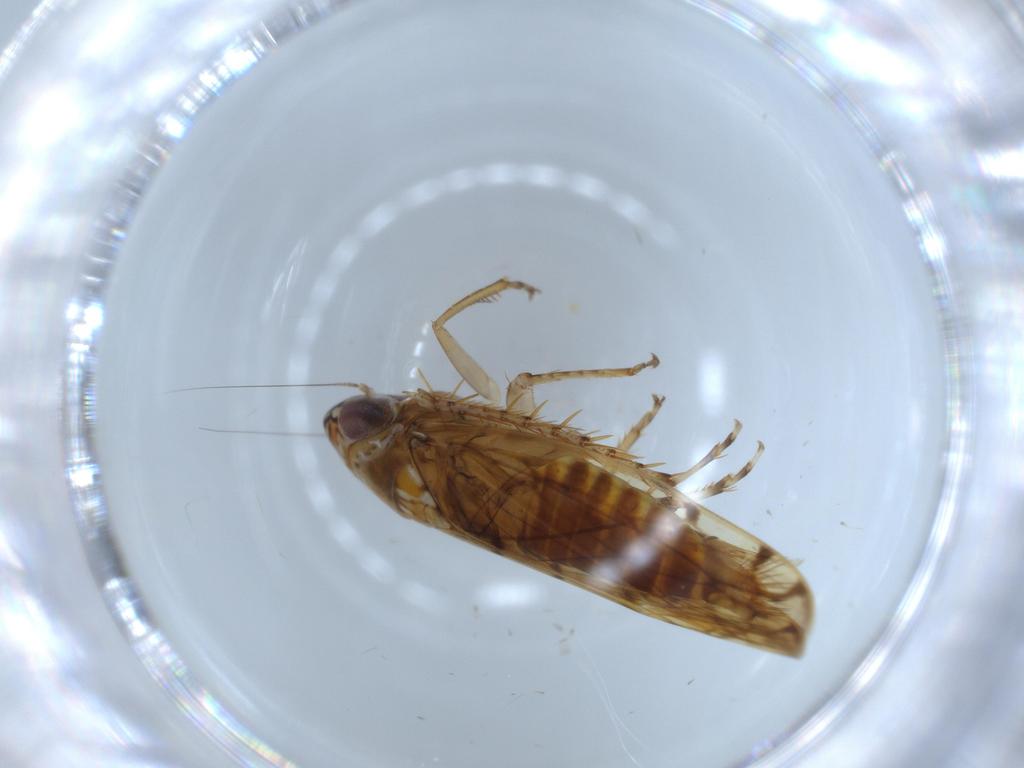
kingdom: Animalia
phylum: Arthropoda
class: Insecta
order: Hemiptera
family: Cicadellidae
